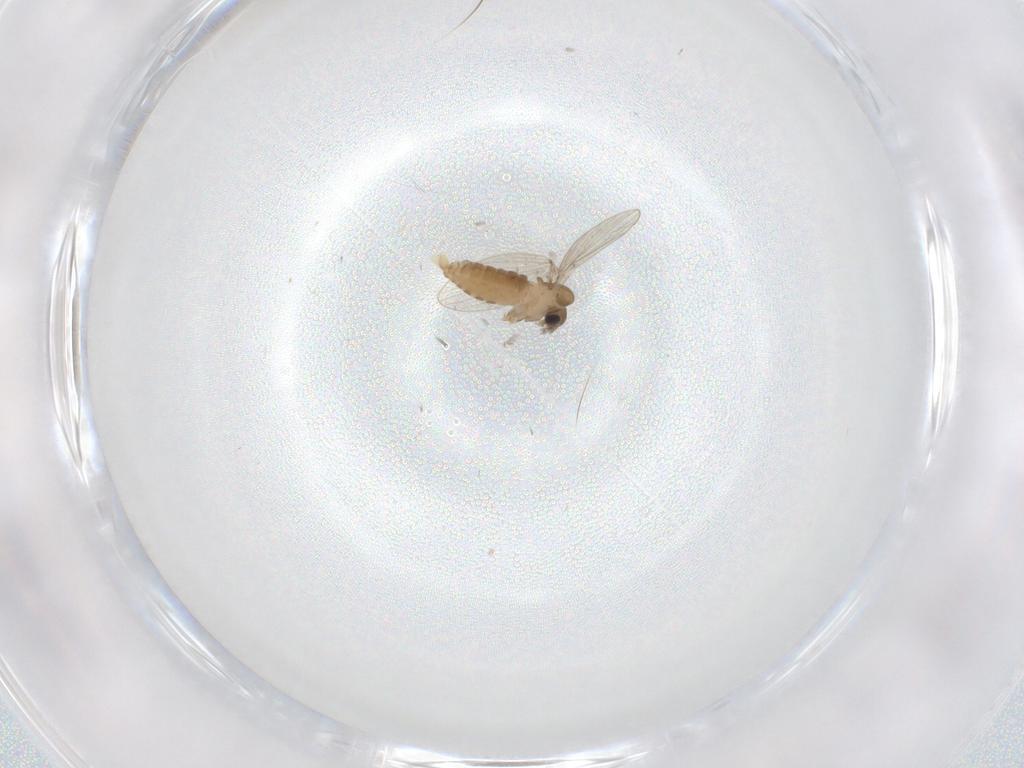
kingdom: Animalia
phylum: Arthropoda
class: Insecta
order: Diptera
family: Psychodidae
